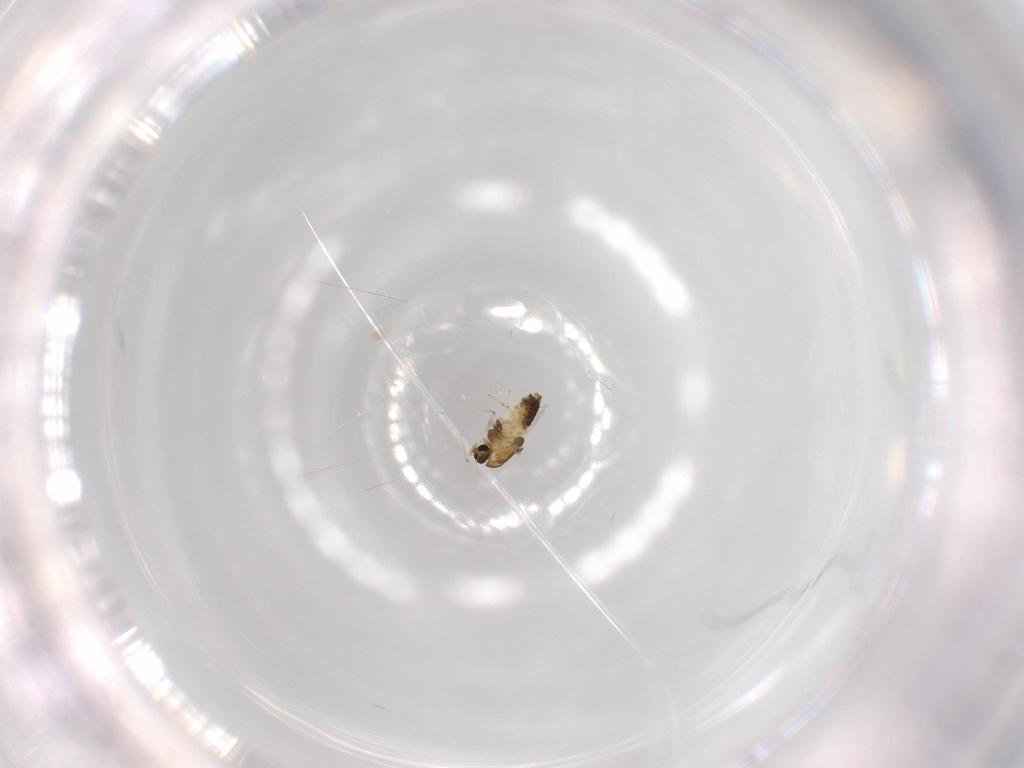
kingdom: Animalia
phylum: Arthropoda
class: Insecta
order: Diptera
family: Chironomidae
